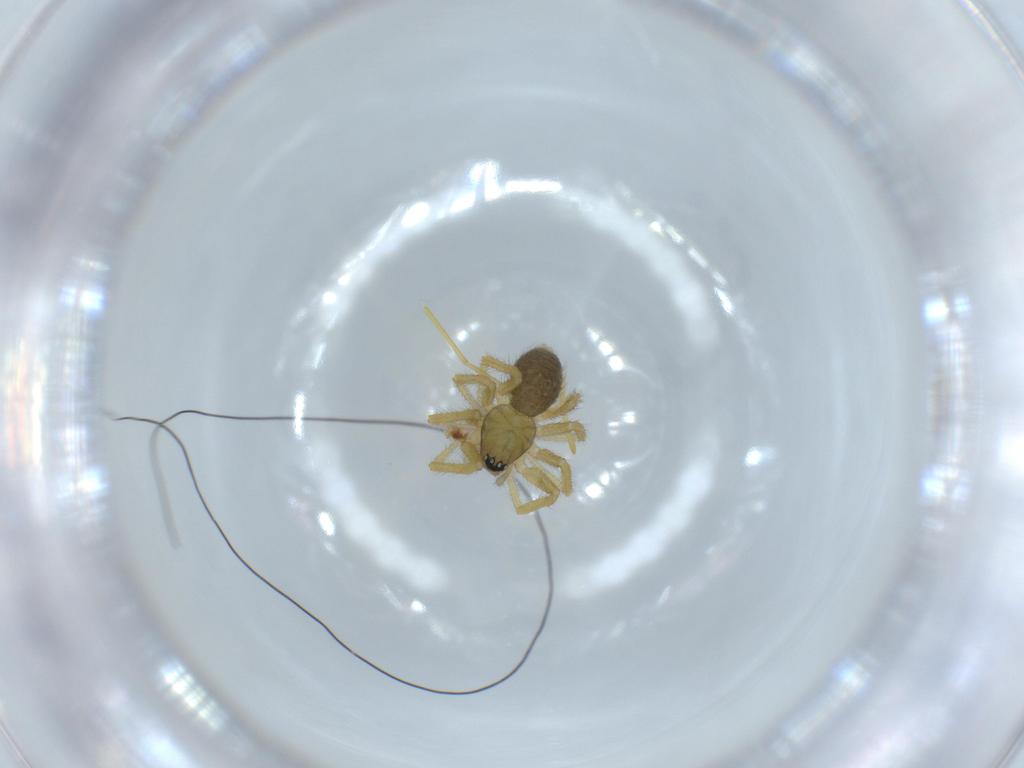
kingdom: Animalia
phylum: Arthropoda
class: Arachnida
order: Araneae
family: Linyphiidae
